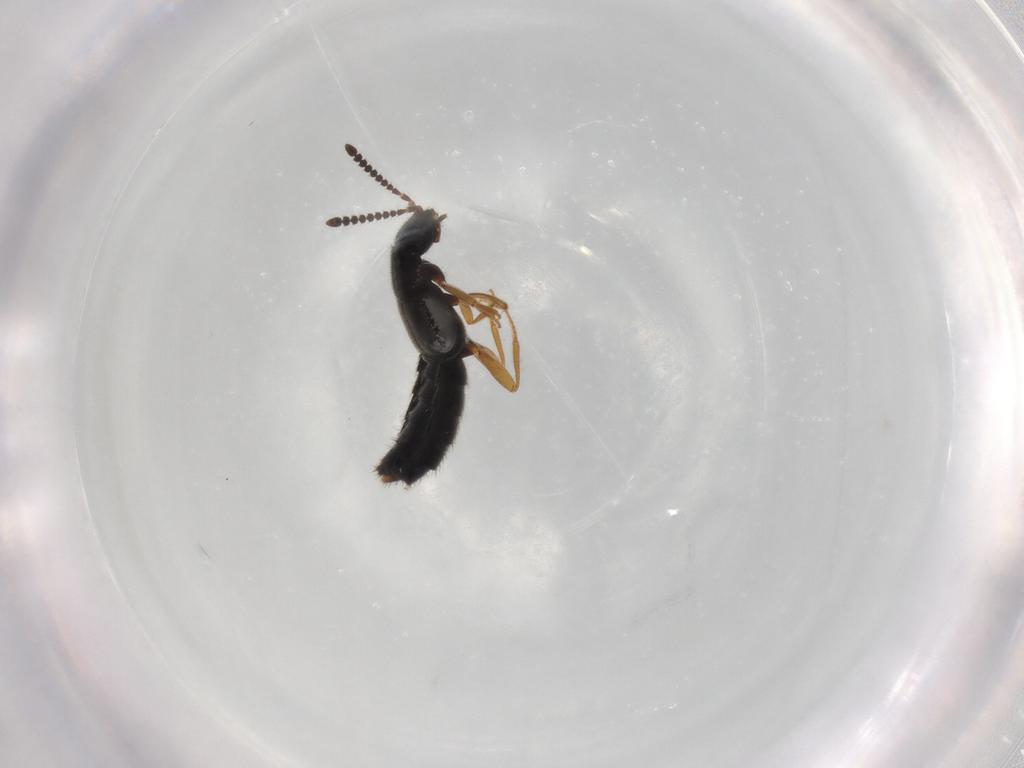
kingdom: Animalia
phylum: Arthropoda
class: Insecta
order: Coleoptera
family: Staphylinidae
